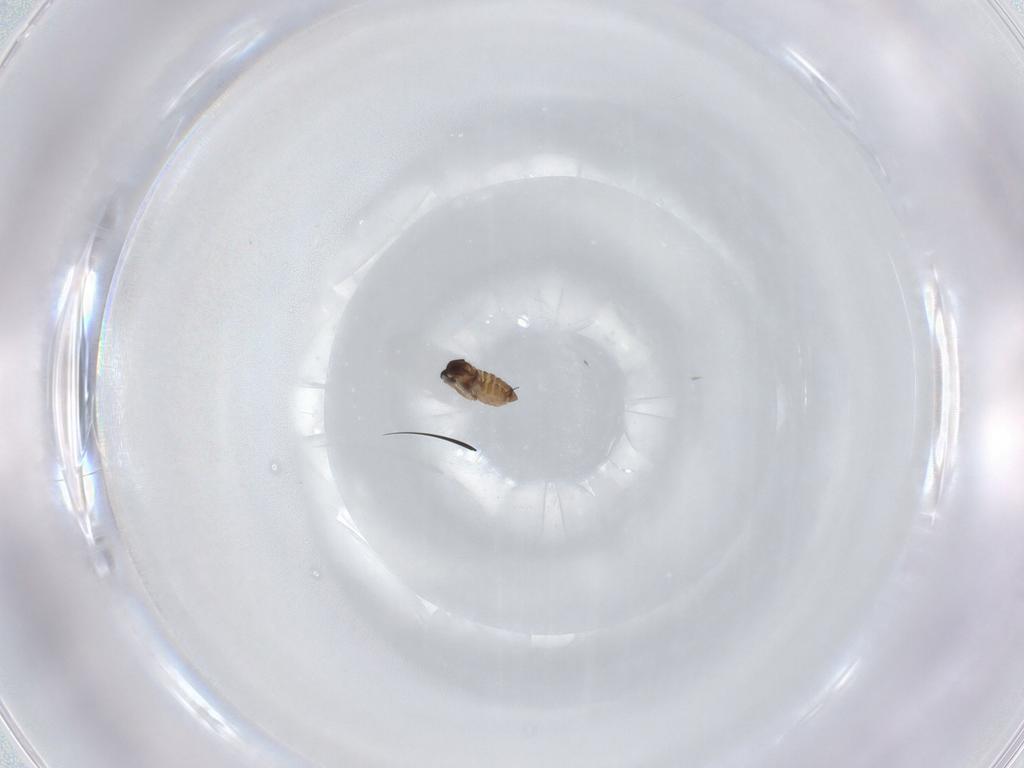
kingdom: Animalia
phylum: Arthropoda
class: Insecta
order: Diptera
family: Cecidomyiidae
